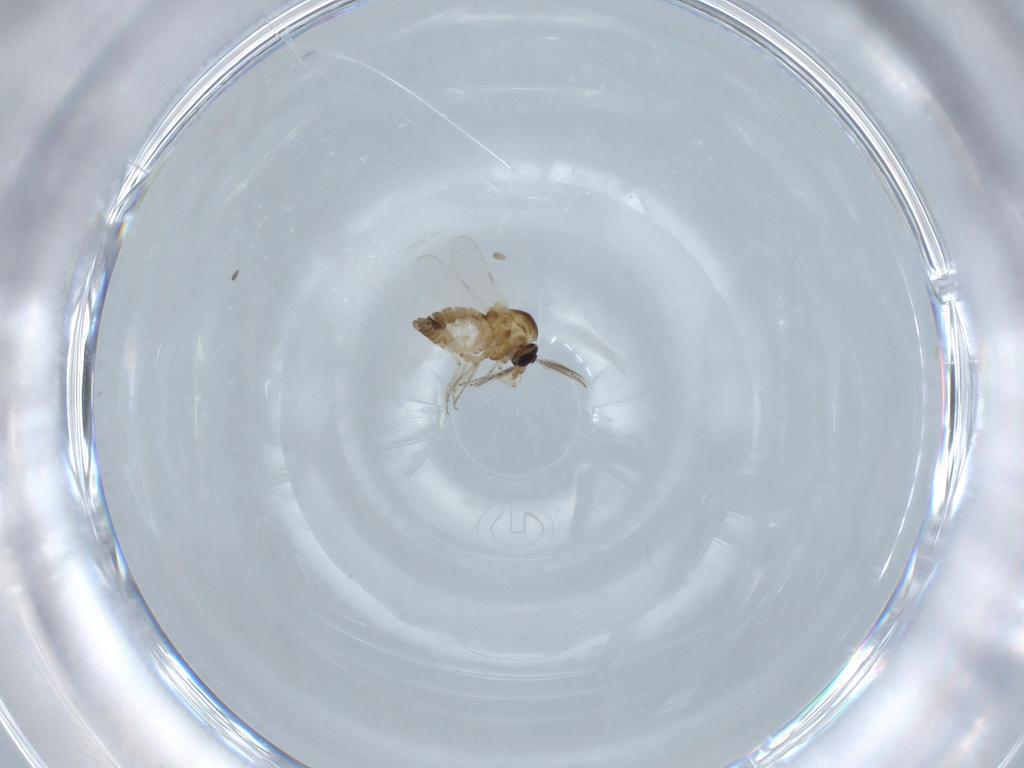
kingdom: Animalia
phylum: Arthropoda
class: Insecta
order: Diptera
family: Ceratopogonidae
